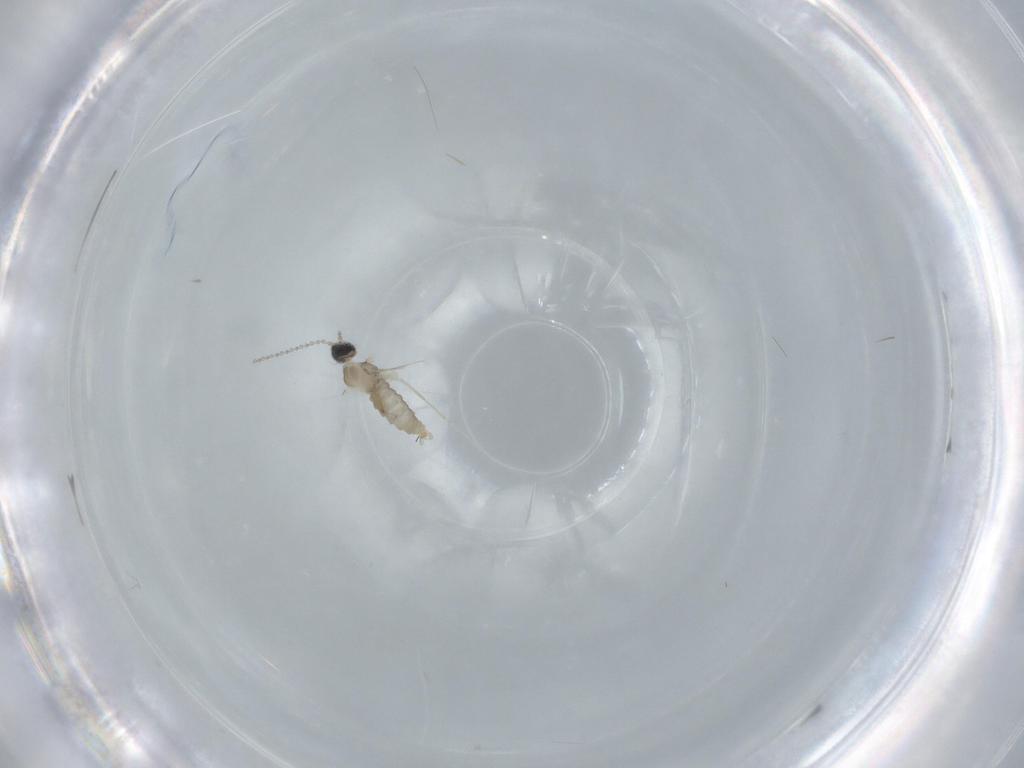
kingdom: Animalia
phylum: Arthropoda
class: Insecta
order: Diptera
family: Cecidomyiidae
